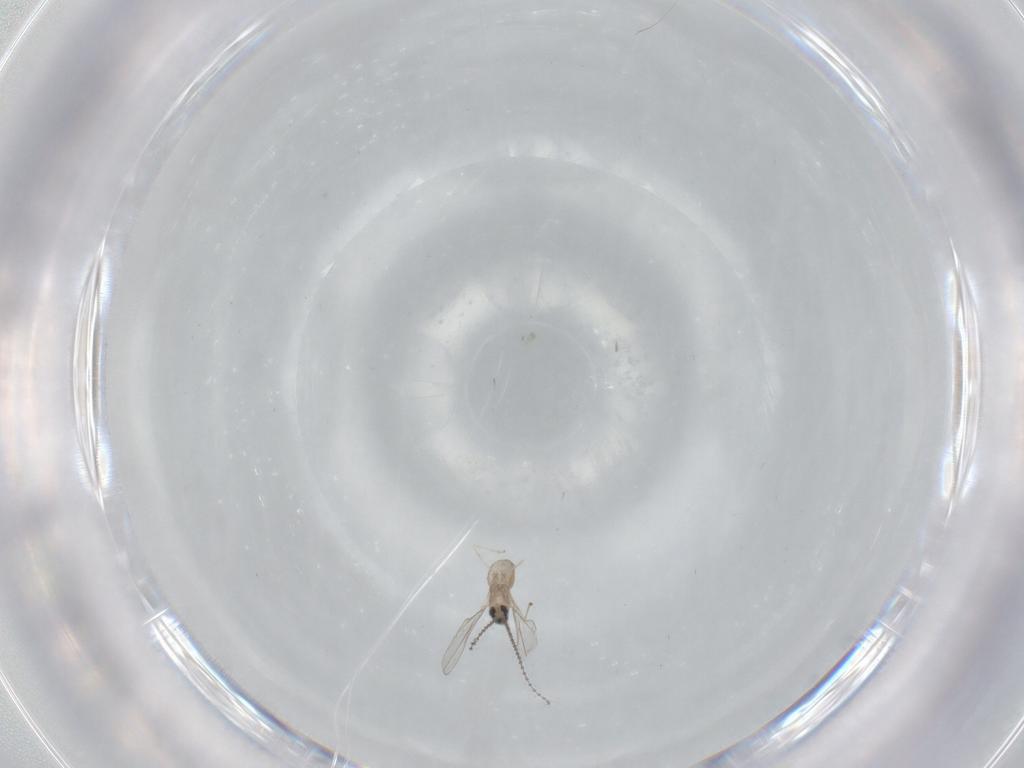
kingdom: Animalia
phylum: Arthropoda
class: Insecta
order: Diptera
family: Cecidomyiidae
